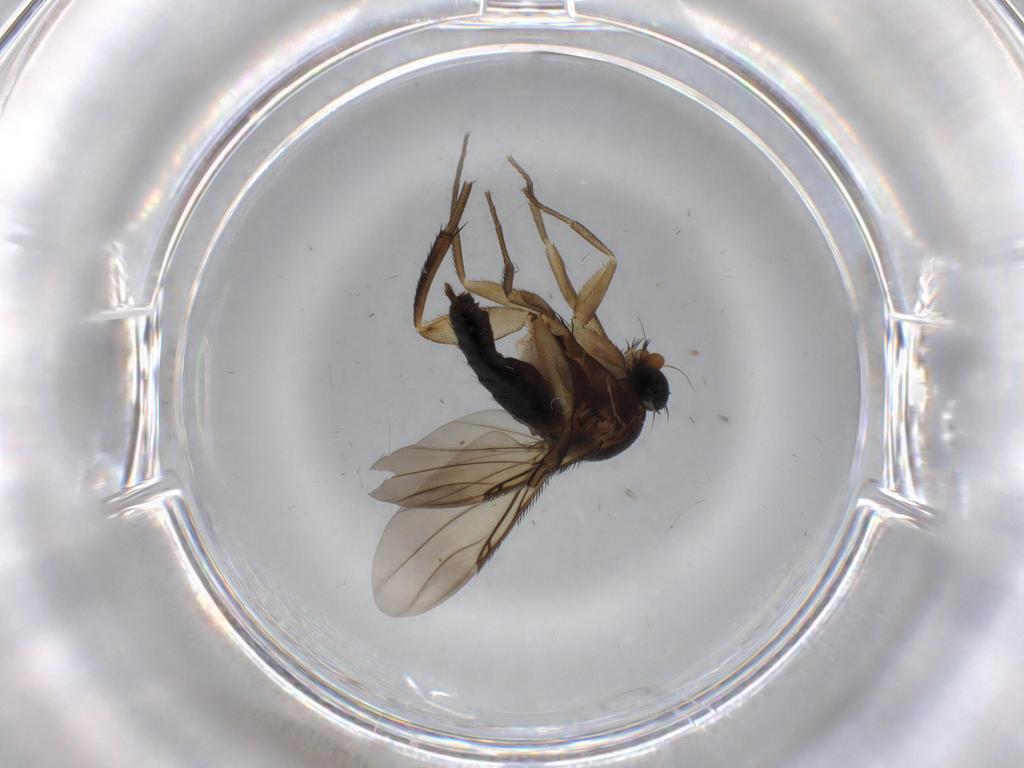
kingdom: Animalia
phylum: Arthropoda
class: Insecta
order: Diptera
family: Phoridae
